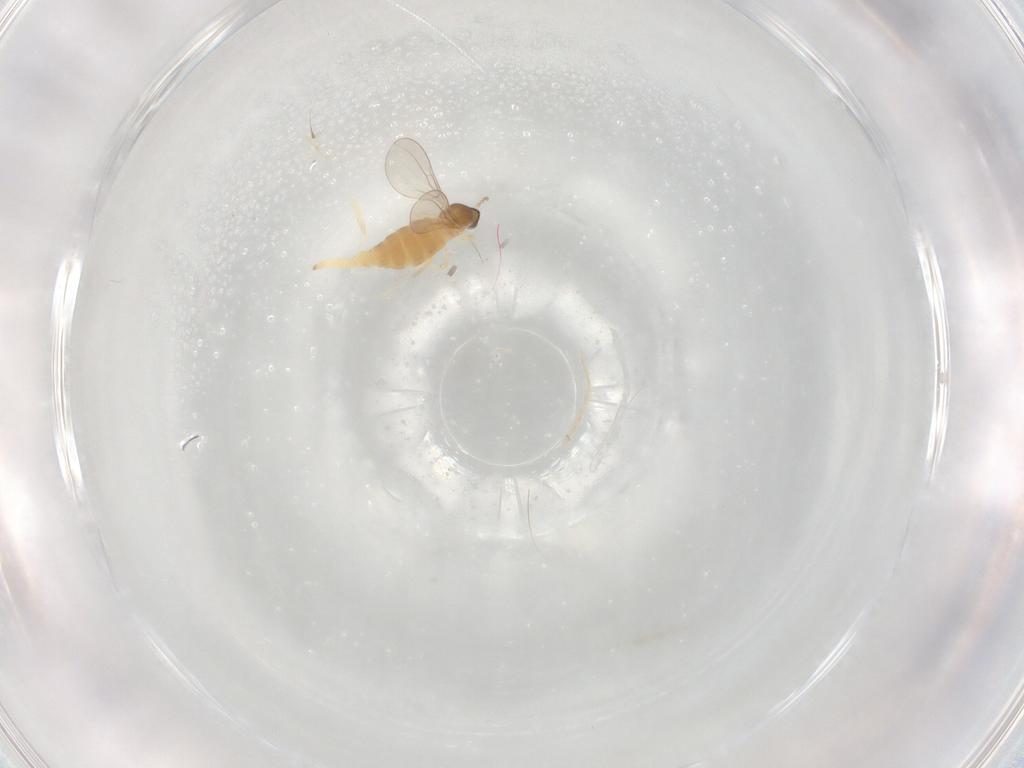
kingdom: Animalia
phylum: Arthropoda
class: Insecta
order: Diptera
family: Cecidomyiidae
